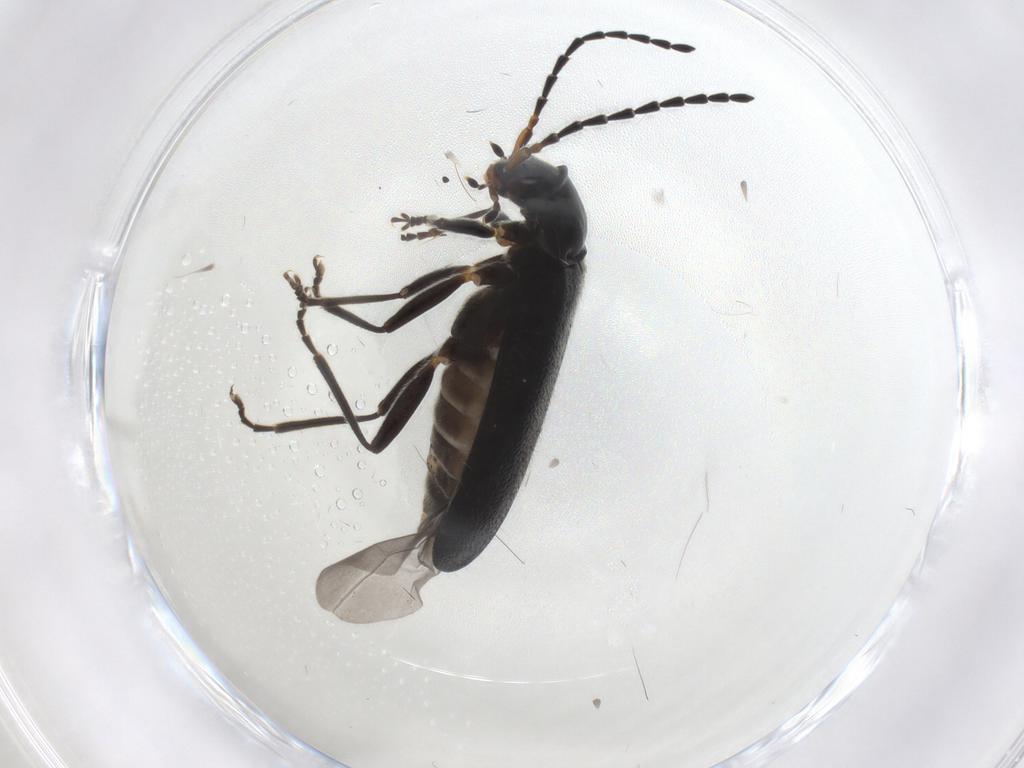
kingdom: Animalia
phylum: Arthropoda
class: Insecta
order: Coleoptera
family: Cantharidae
